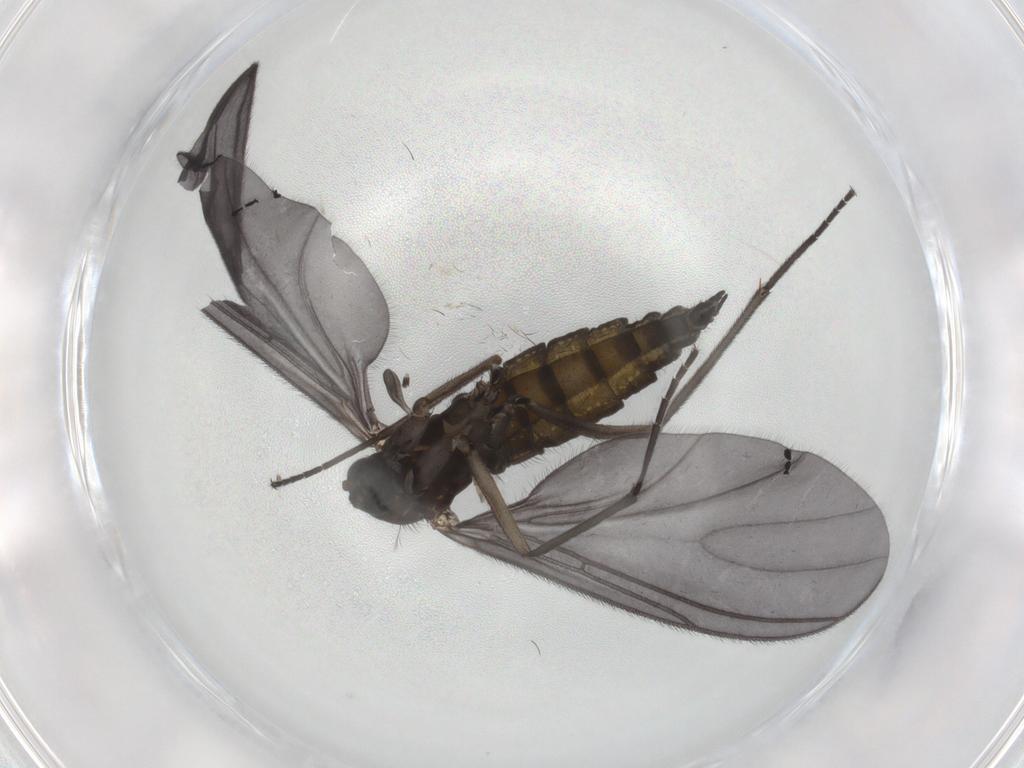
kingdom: Animalia
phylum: Arthropoda
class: Insecta
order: Diptera
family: Sciaridae
